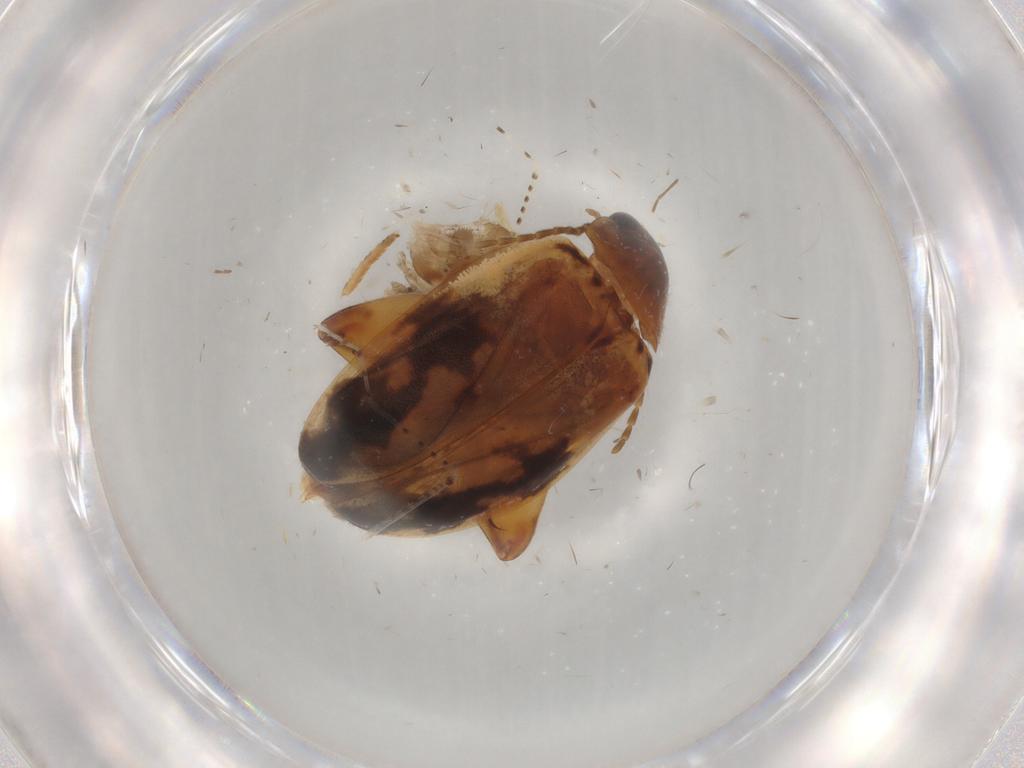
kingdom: Animalia
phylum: Arthropoda
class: Insecta
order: Coleoptera
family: Scirtidae
